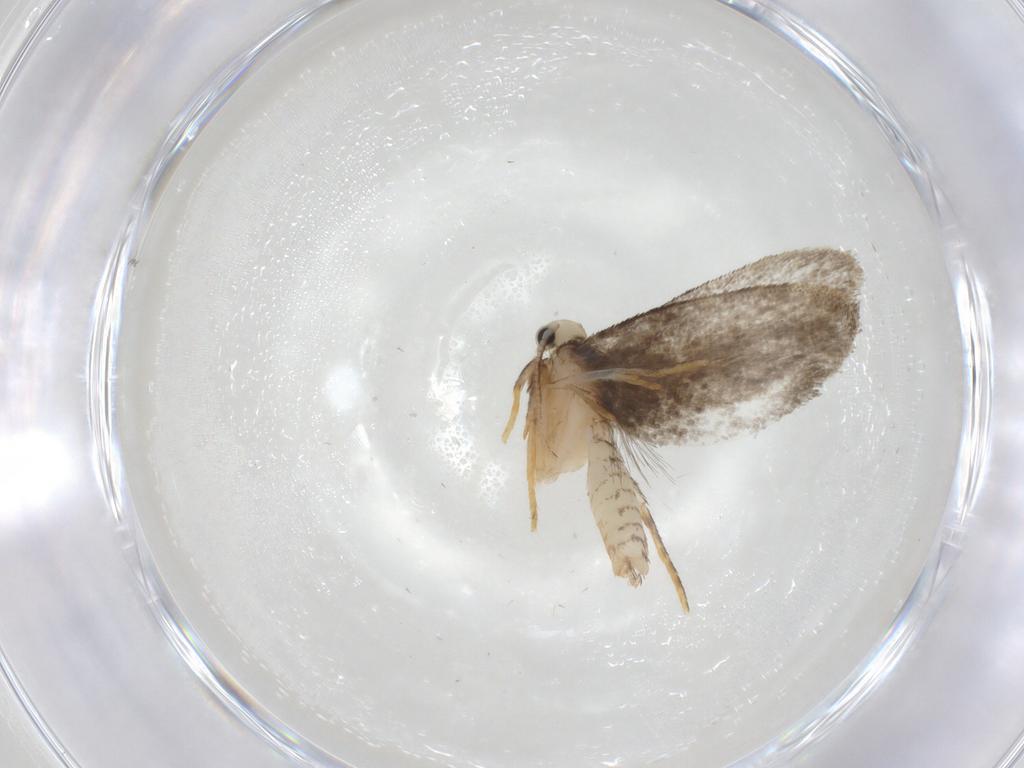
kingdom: Animalia
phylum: Arthropoda
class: Insecta
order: Lepidoptera
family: Psychidae
